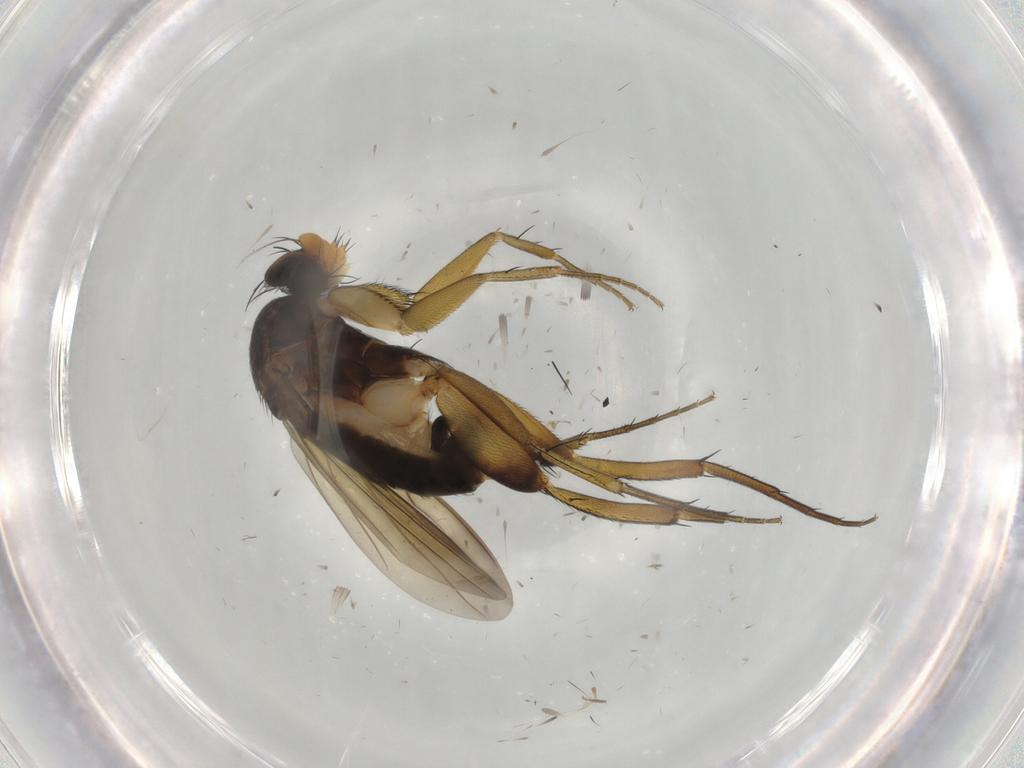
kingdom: Animalia
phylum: Arthropoda
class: Insecta
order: Diptera
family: Phoridae
